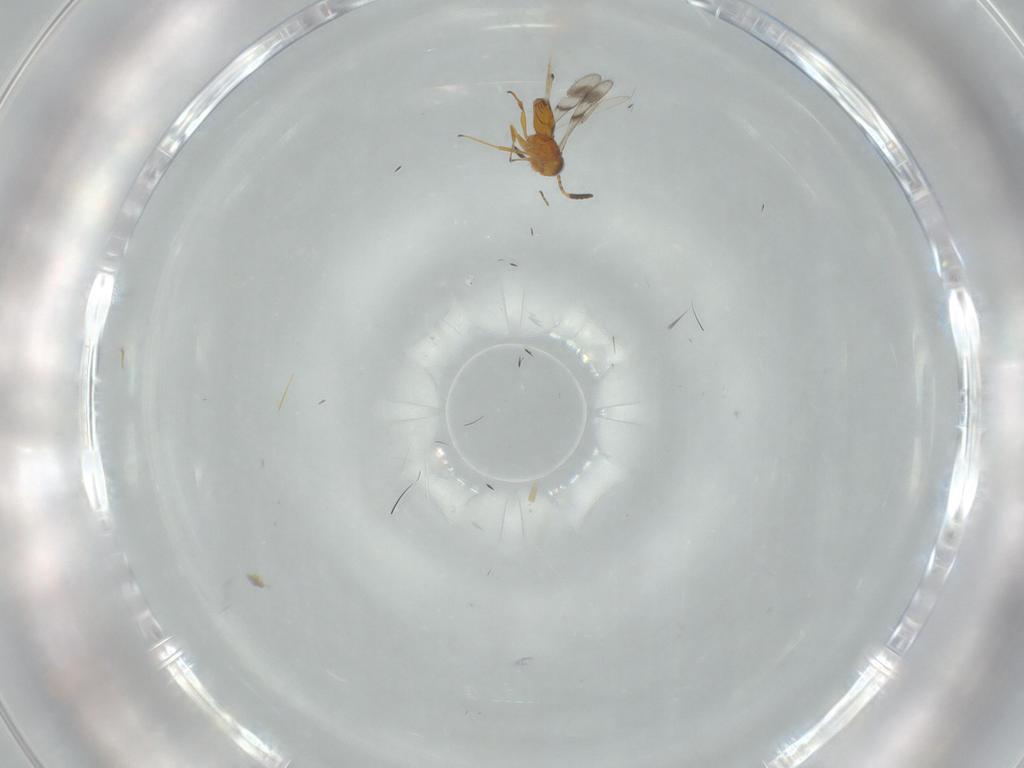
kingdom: Animalia
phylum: Arthropoda
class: Insecta
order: Hymenoptera
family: Scelionidae
